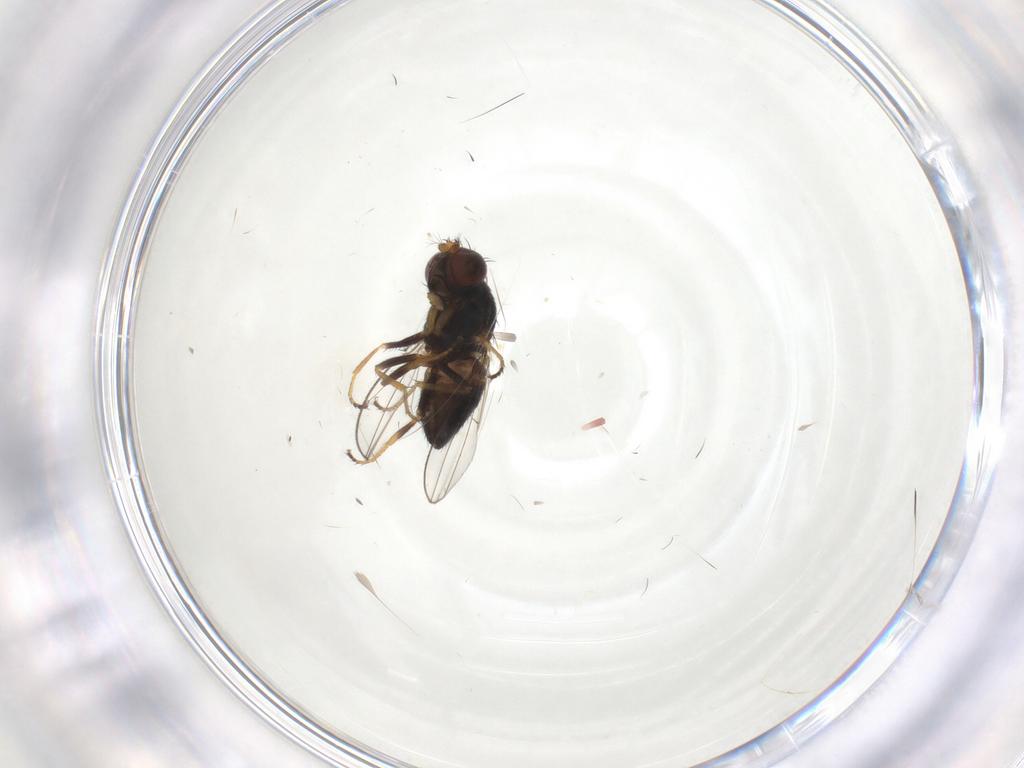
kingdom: Animalia
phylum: Arthropoda
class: Insecta
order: Diptera
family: Ephydridae
